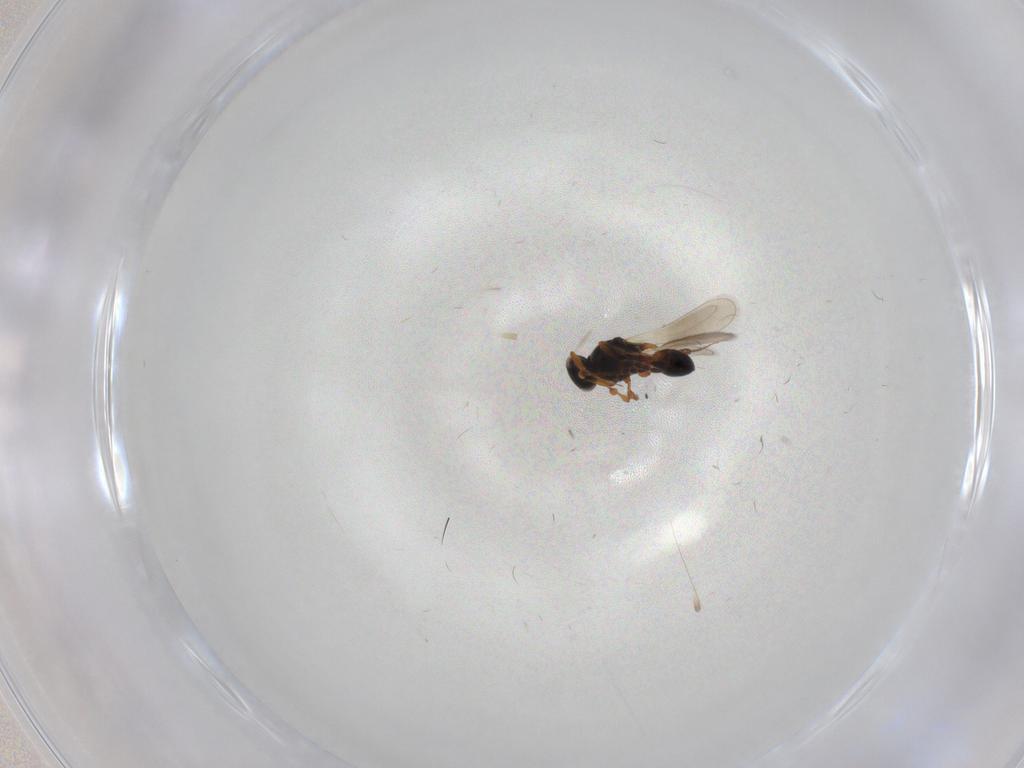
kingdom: Animalia
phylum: Arthropoda
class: Insecta
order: Hymenoptera
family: Platygastridae
